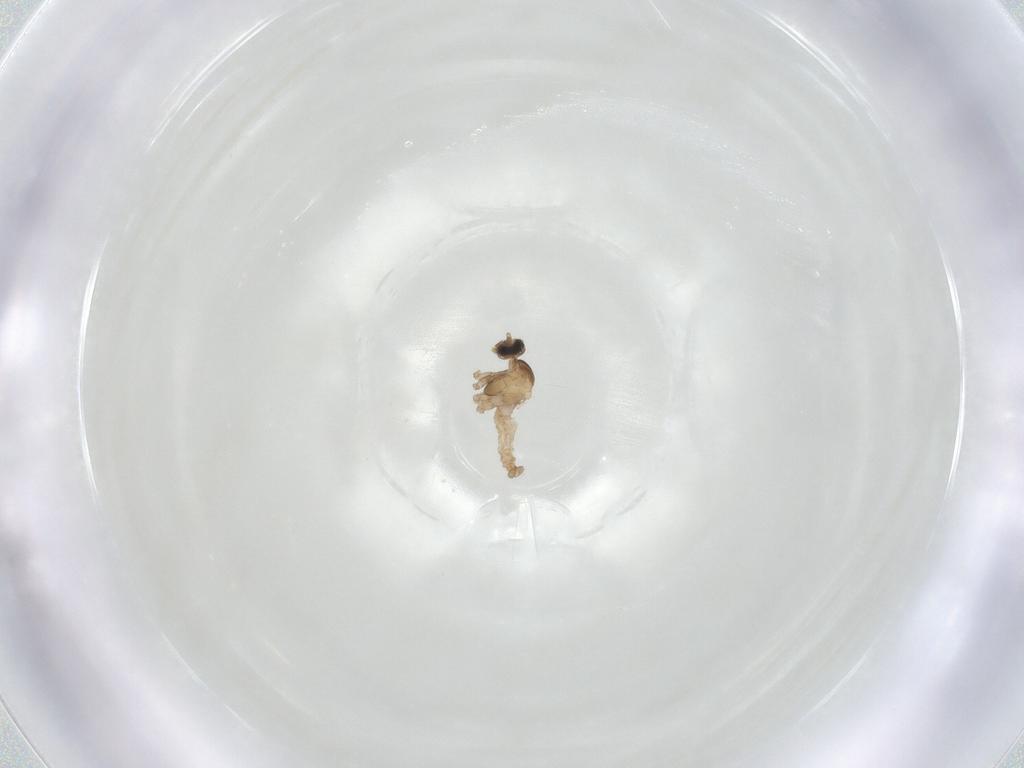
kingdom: Animalia
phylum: Arthropoda
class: Insecta
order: Diptera
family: Cecidomyiidae
